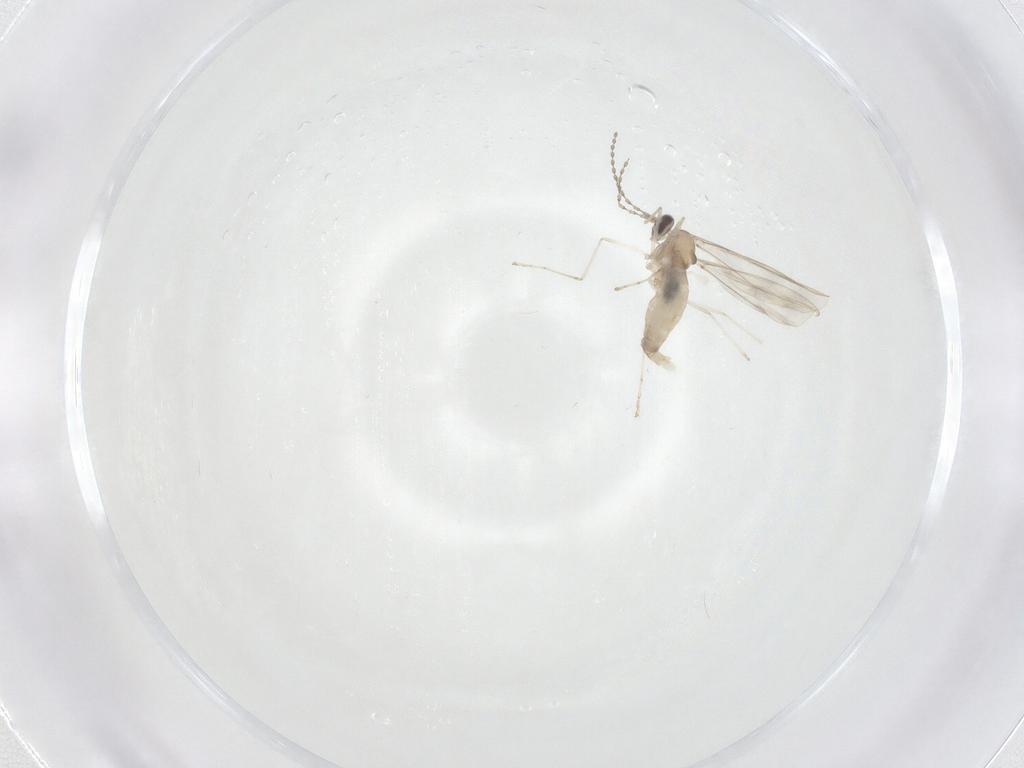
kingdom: Animalia
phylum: Arthropoda
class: Insecta
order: Diptera
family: Cecidomyiidae
